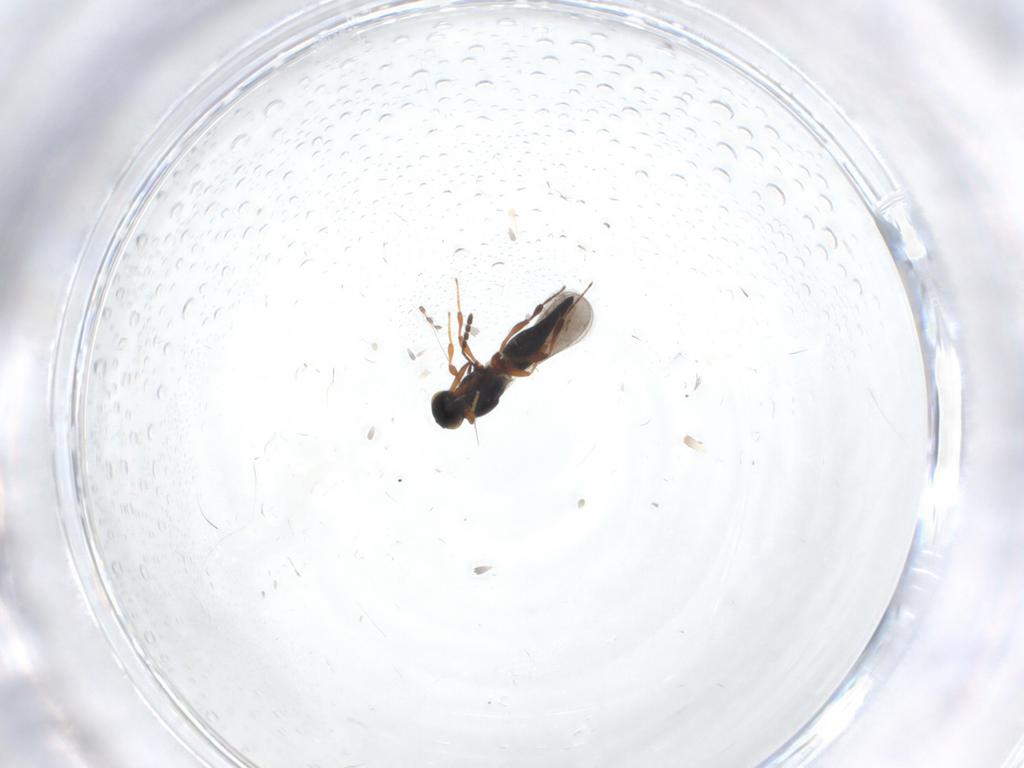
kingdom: Animalia
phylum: Arthropoda
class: Insecta
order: Hymenoptera
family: Platygastridae
